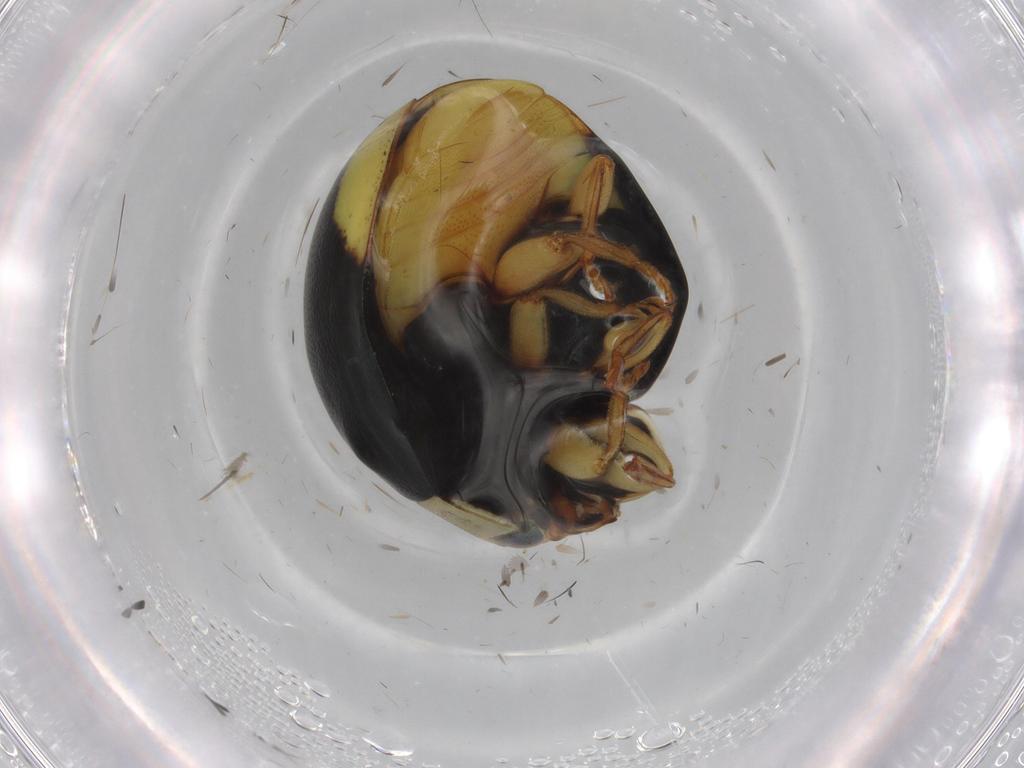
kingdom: Animalia
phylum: Arthropoda
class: Insecta
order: Coleoptera
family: Coccinellidae
